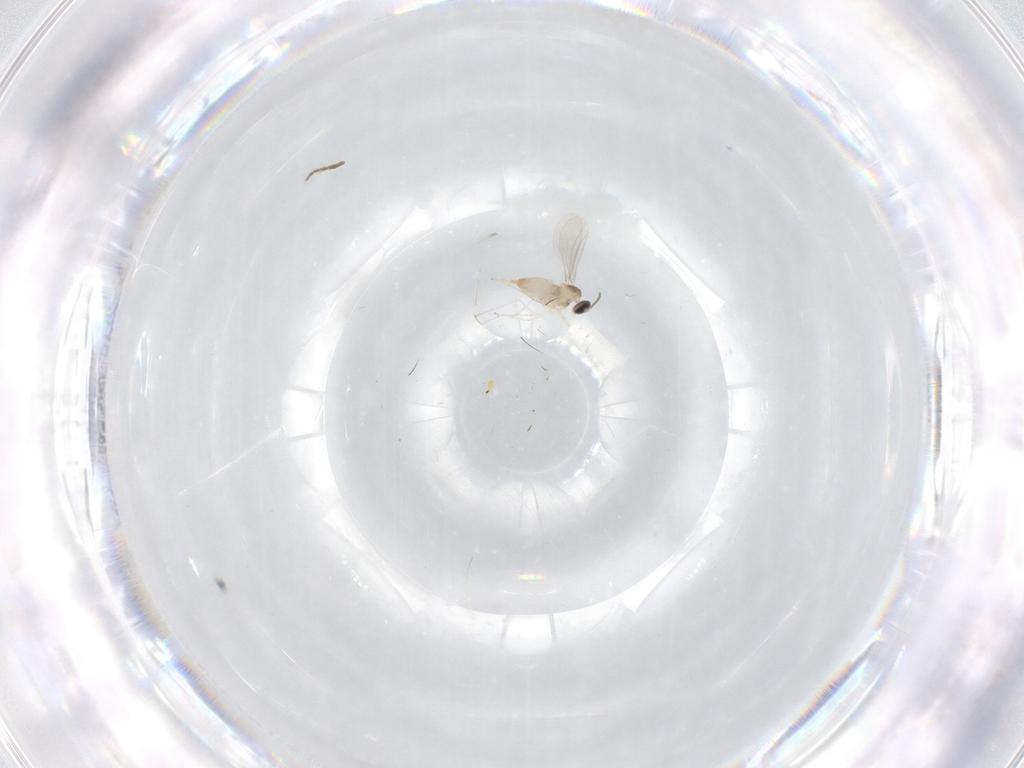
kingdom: Animalia
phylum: Arthropoda
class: Insecta
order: Diptera
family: Cecidomyiidae
